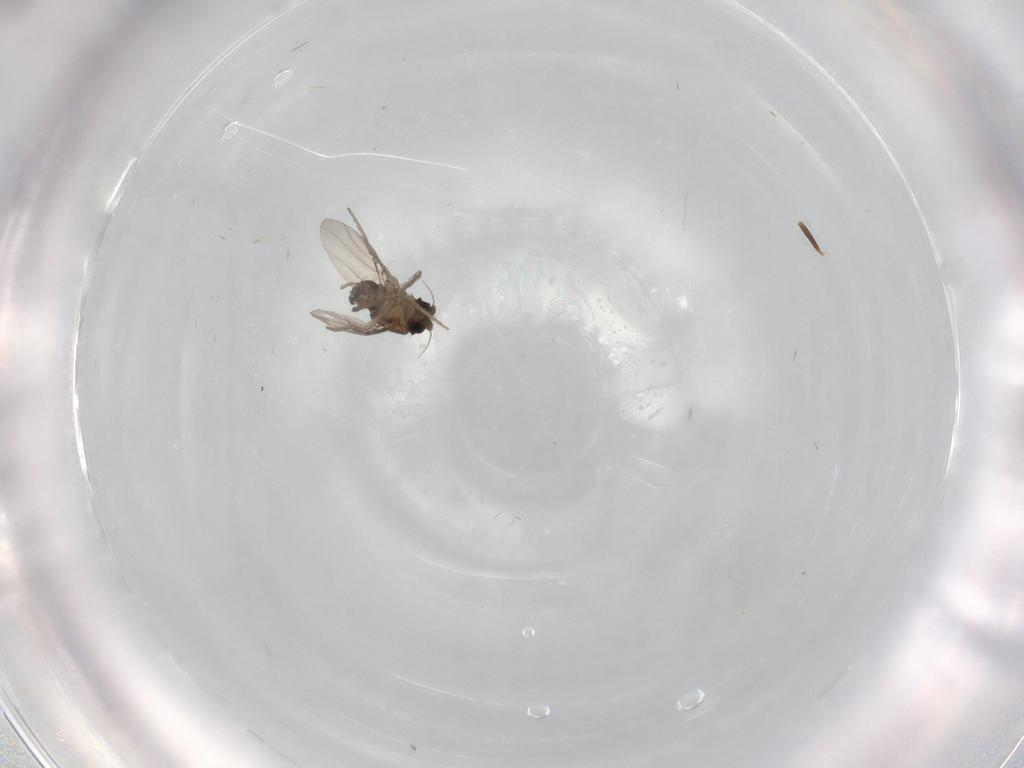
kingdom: Animalia
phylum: Arthropoda
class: Insecta
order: Diptera
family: Phoridae
